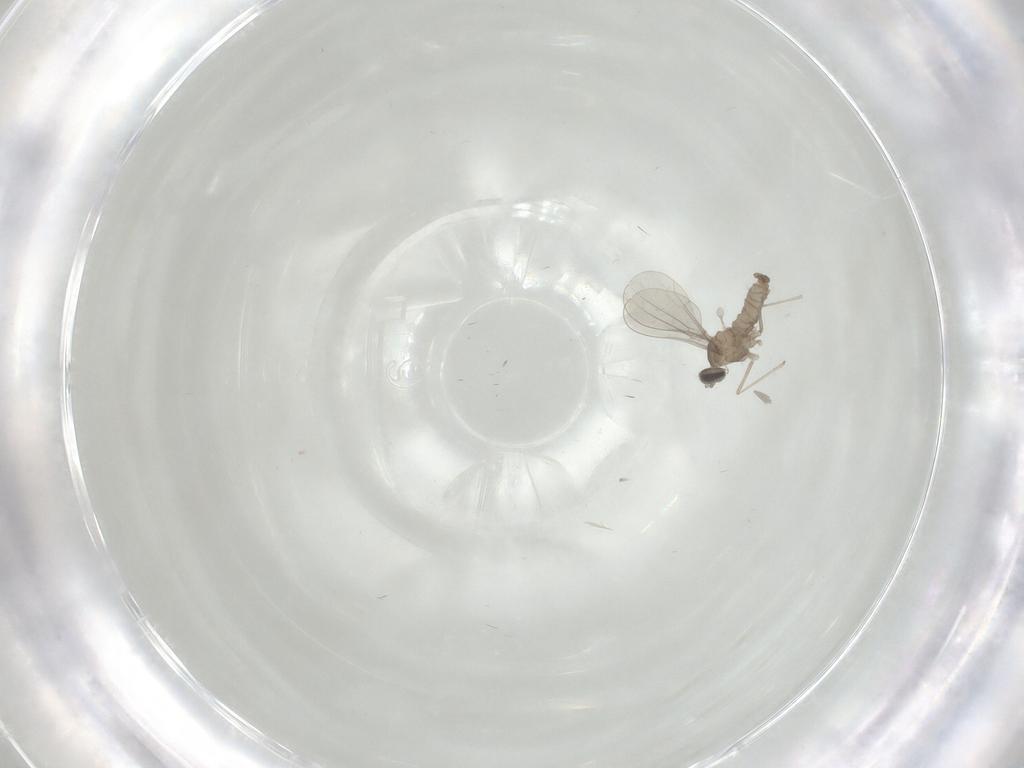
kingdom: Animalia
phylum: Arthropoda
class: Insecta
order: Diptera
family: Cecidomyiidae
